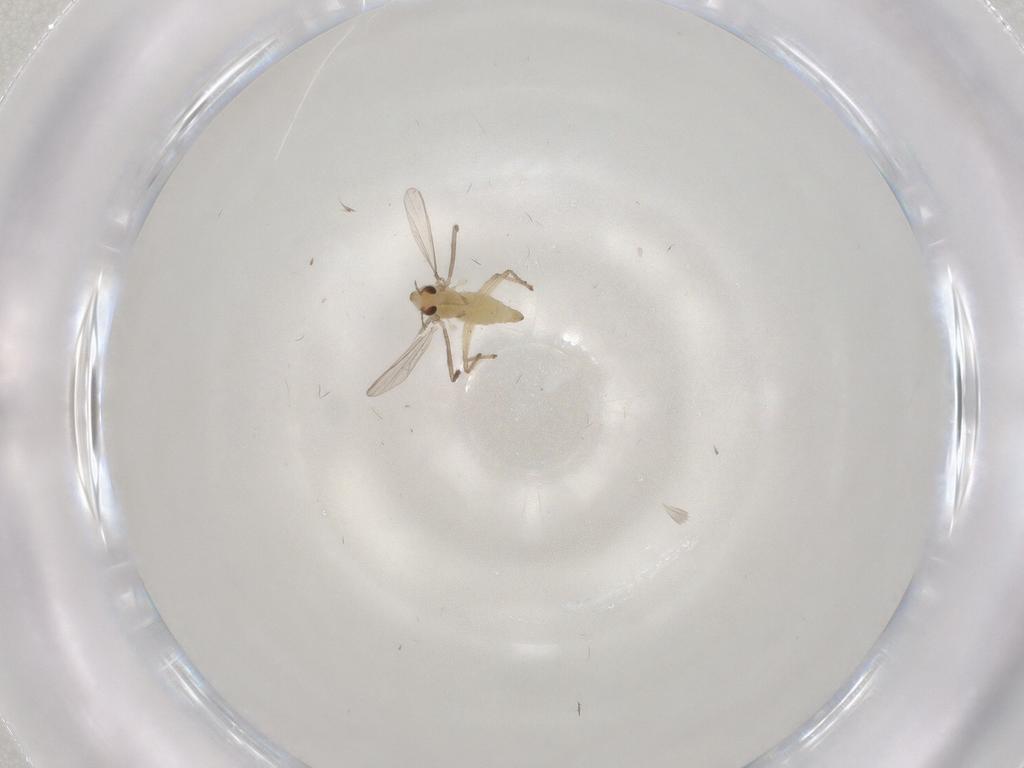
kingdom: Animalia
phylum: Arthropoda
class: Insecta
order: Diptera
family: Chironomidae
